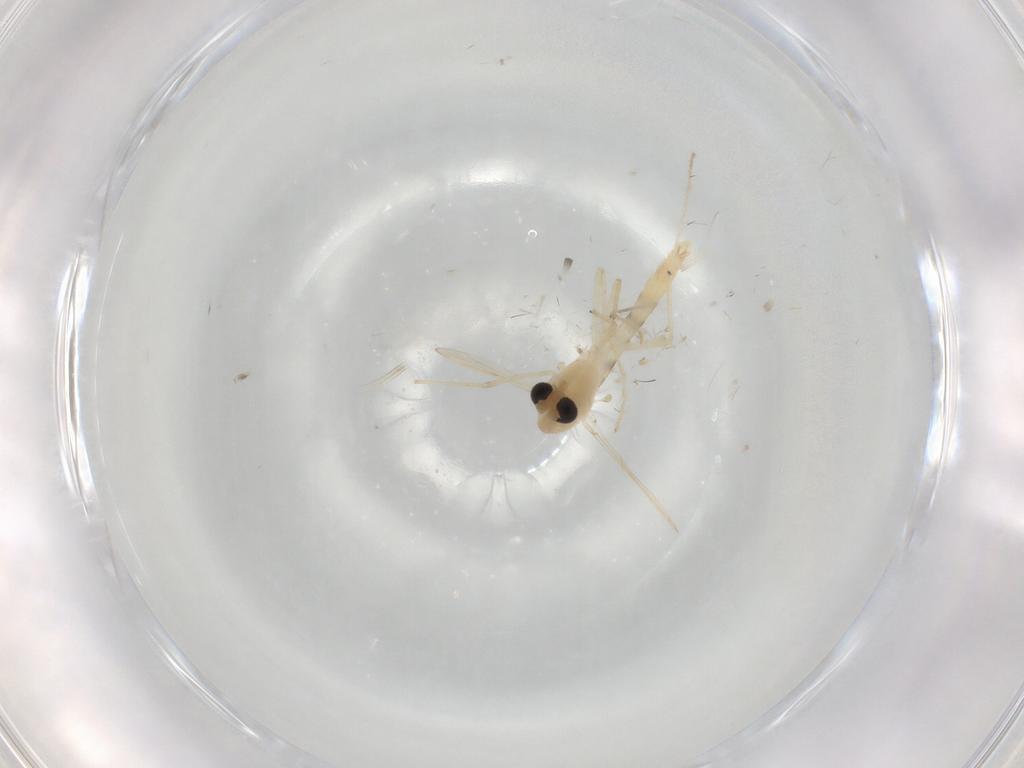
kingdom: Animalia
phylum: Arthropoda
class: Insecta
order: Diptera
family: Chironomidae
